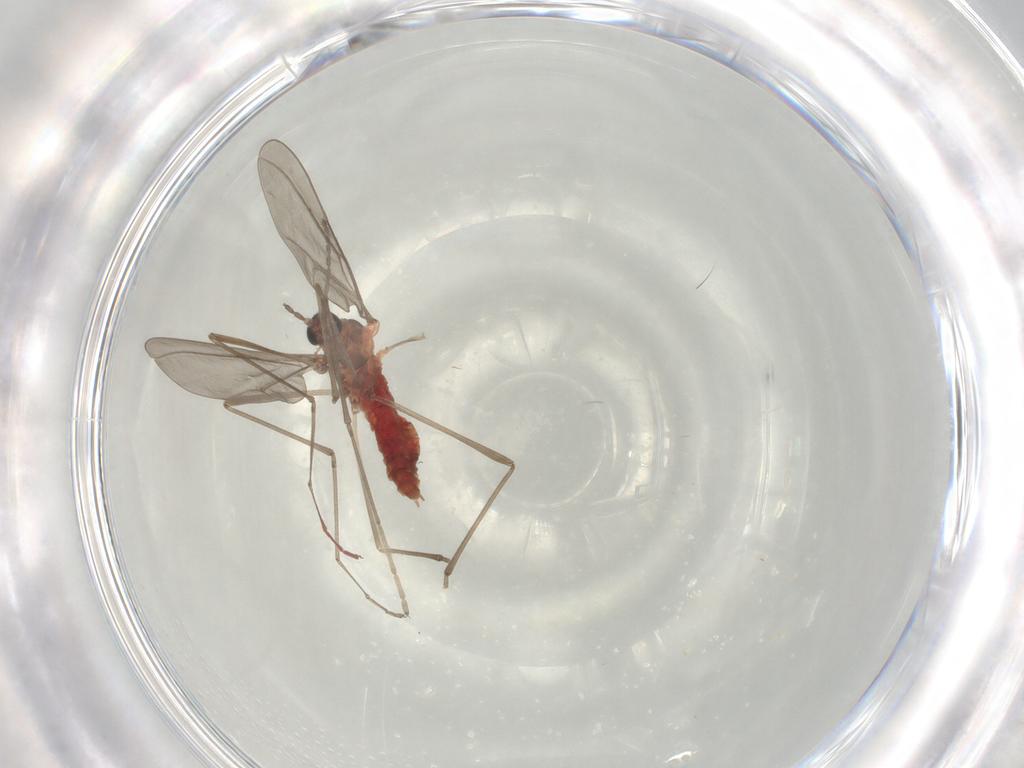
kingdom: Animalia
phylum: Arthropoda
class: Insecta
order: Diptera
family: Cecidomyiidae
